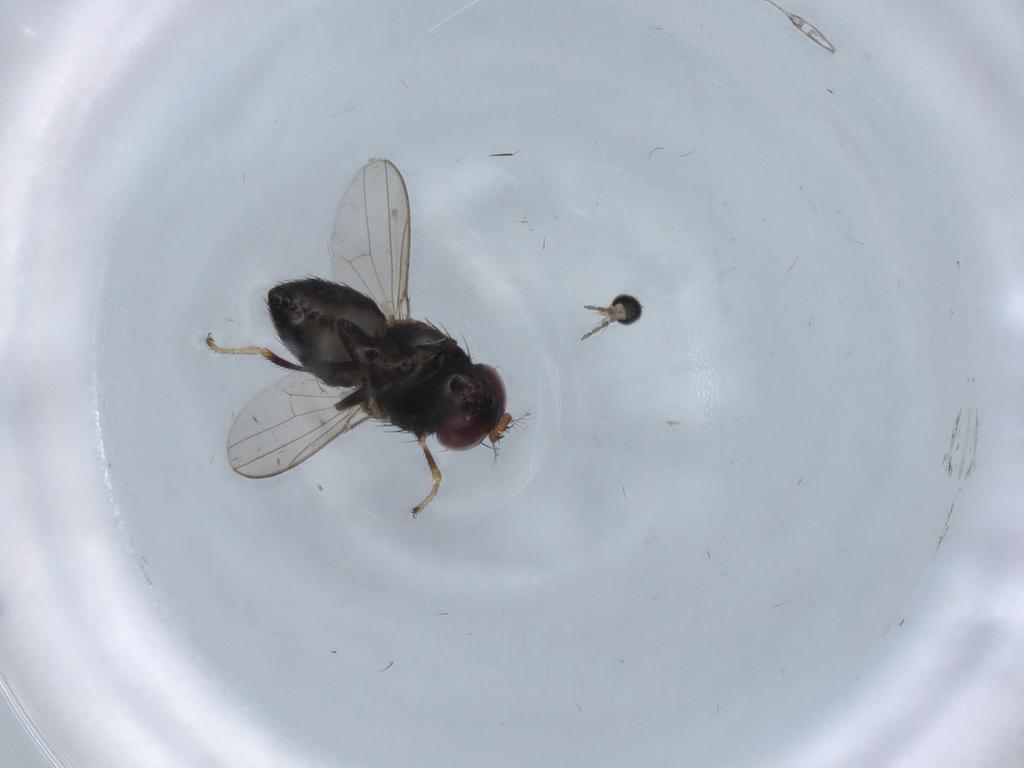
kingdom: Animalia
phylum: Arthropoda
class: Insecta
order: Diptera
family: Ephydridae
